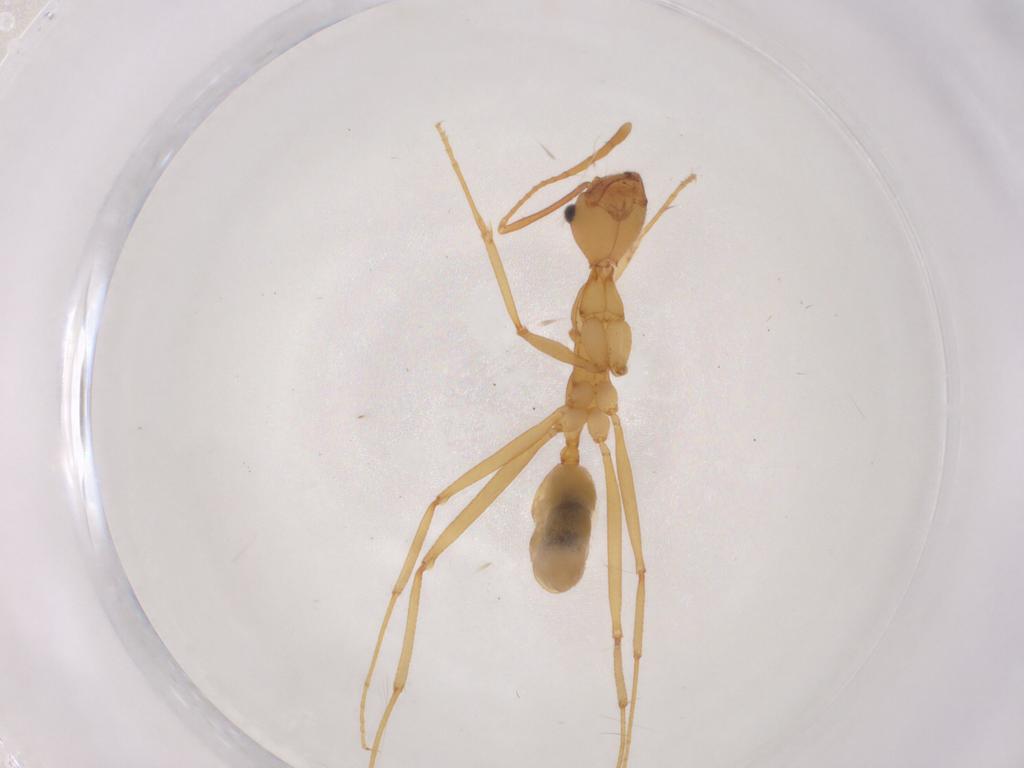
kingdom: Animalia
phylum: Arthropoda
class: Insecta
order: Hymenoptera
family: Formicidae
